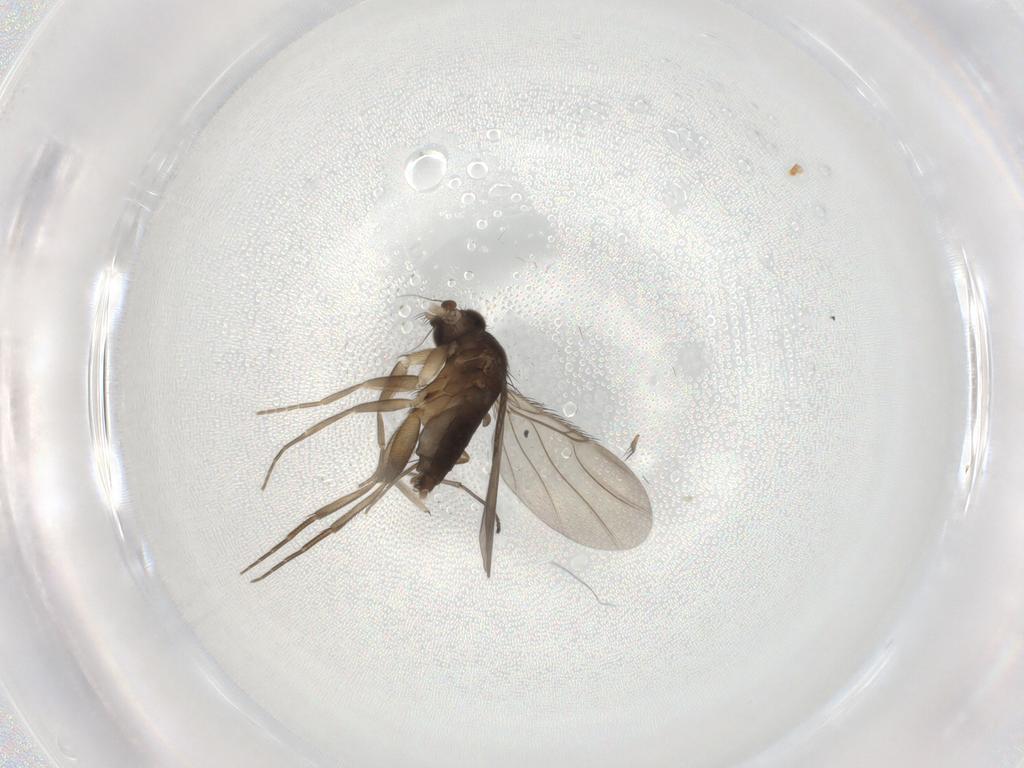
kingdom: Animalia
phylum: Arthropoda
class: Insecta
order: Diptera
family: Phoridae
